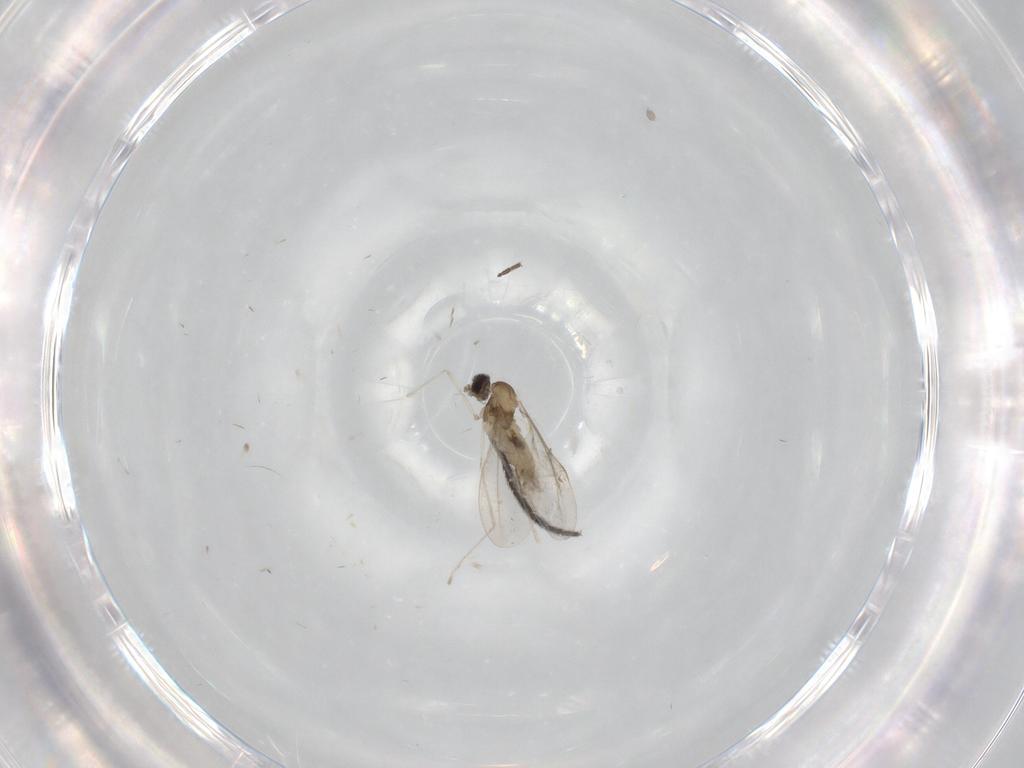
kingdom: Animalia
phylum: Arthropoda
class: Insecta
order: Diptera
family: Cecidomyiidae
